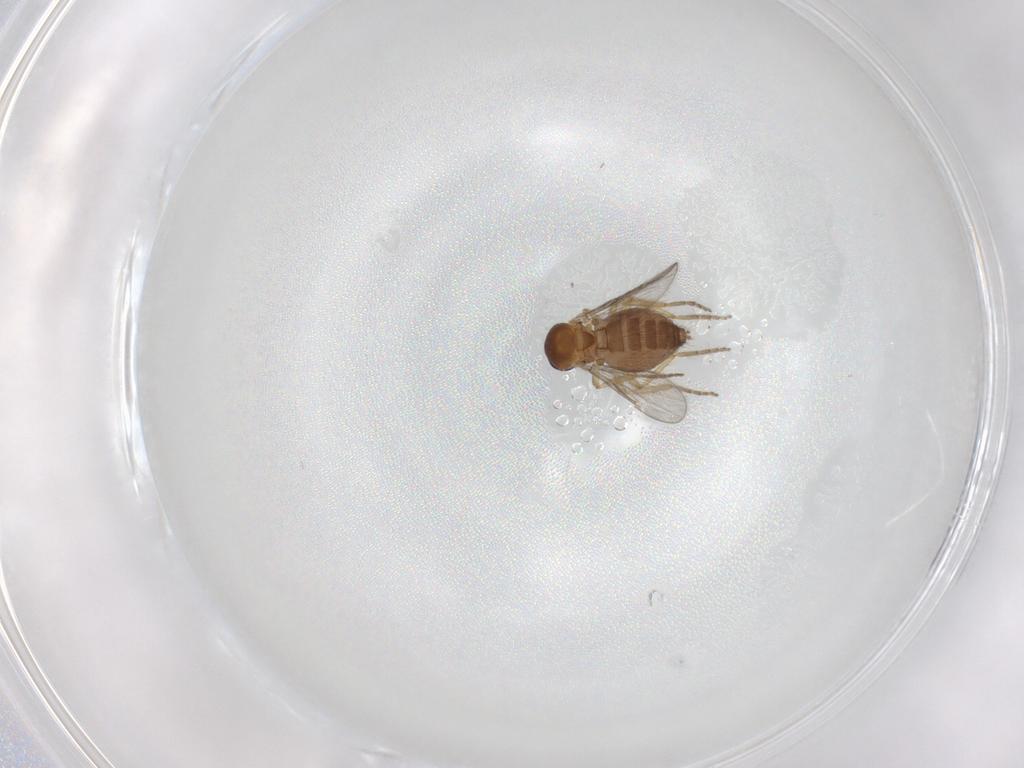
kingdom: Animalia
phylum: Arthropoda
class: Insecta
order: Diptera
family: Ceratopogonidae
